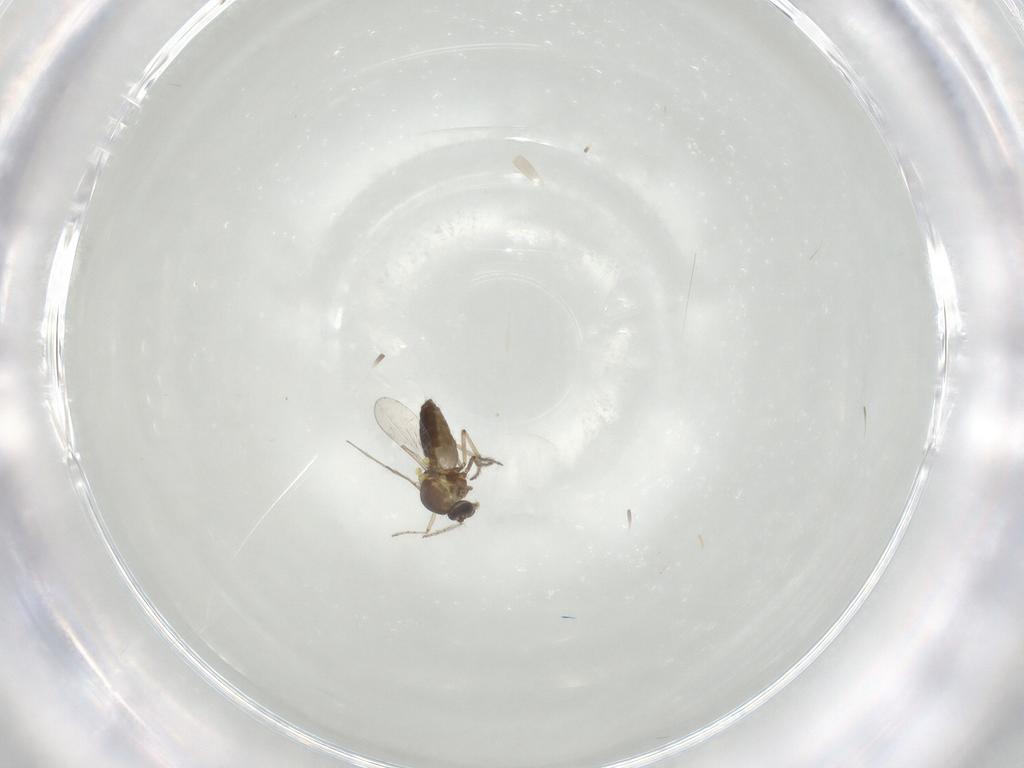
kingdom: Animalia
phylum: Arthropoda
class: Insecta
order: Diptera
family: Ceratopogonidae
